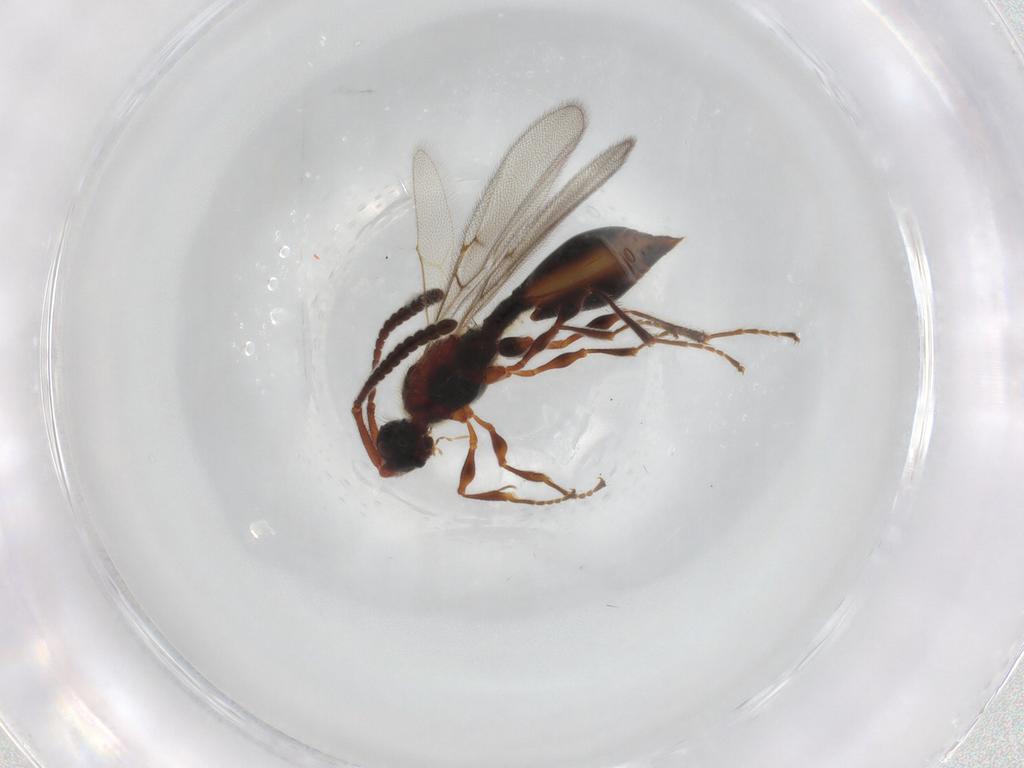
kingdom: Animalia
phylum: Arthropoda
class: Insecta
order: Hymenoptera
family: Diapriidae
